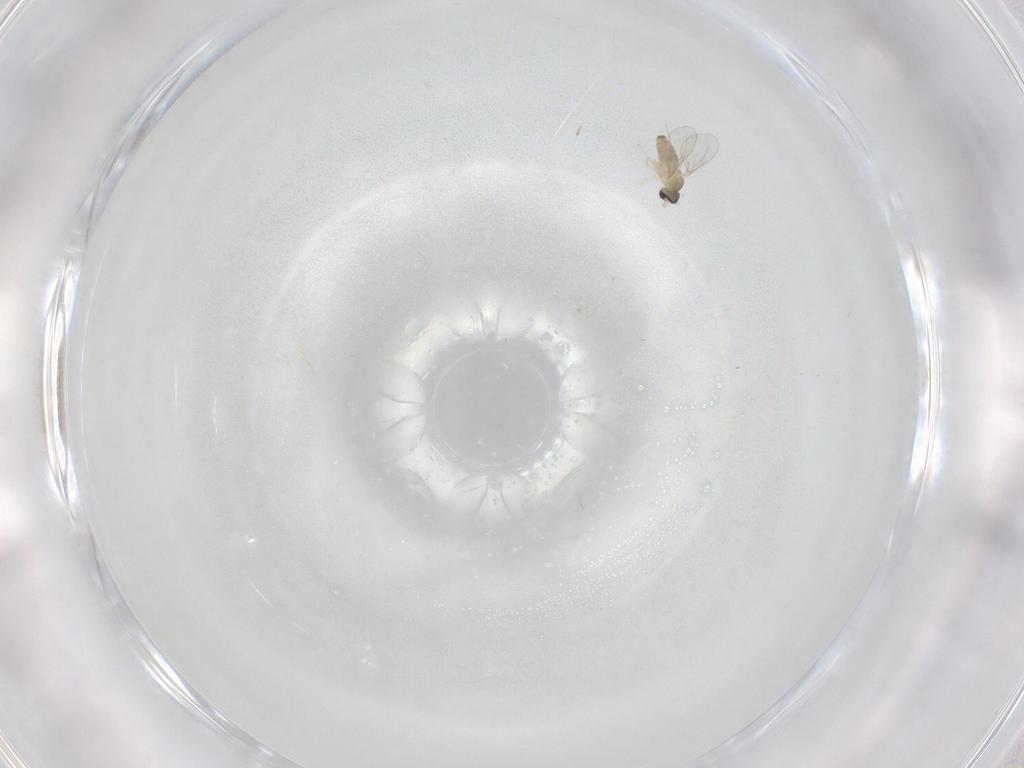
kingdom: Animalia
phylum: Arthropoda
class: Insecta
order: Diptera
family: Cecidomyiidae
